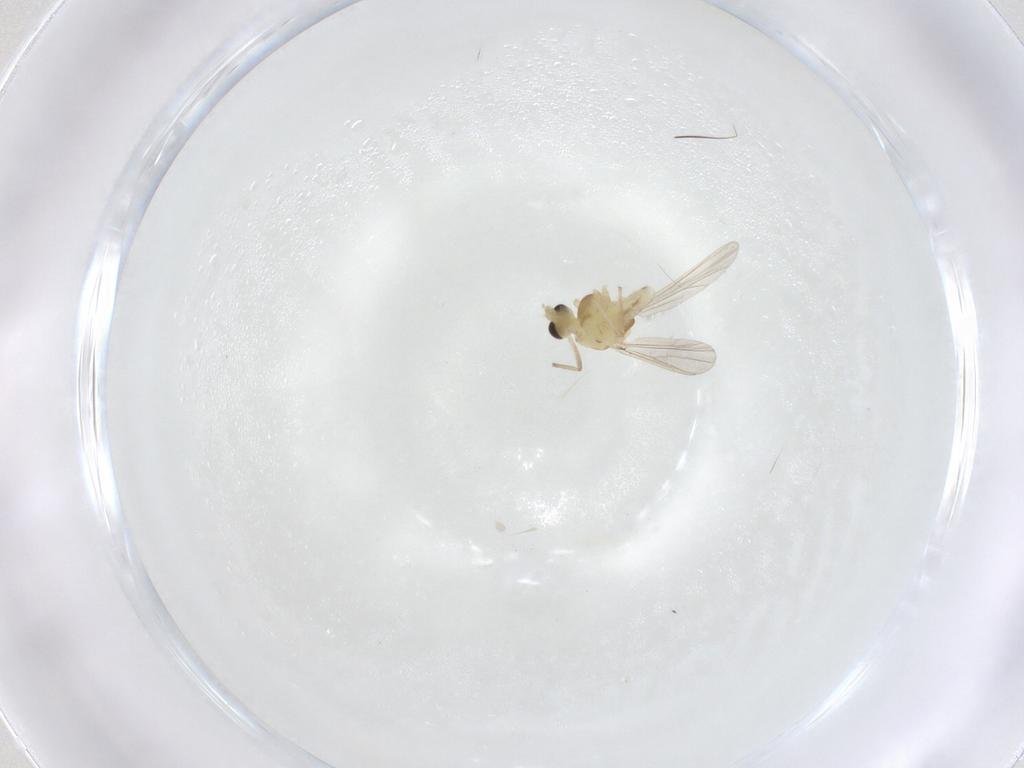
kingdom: Animalia
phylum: Arthropoda
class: Insecta
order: Diptera
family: Chironomidae
